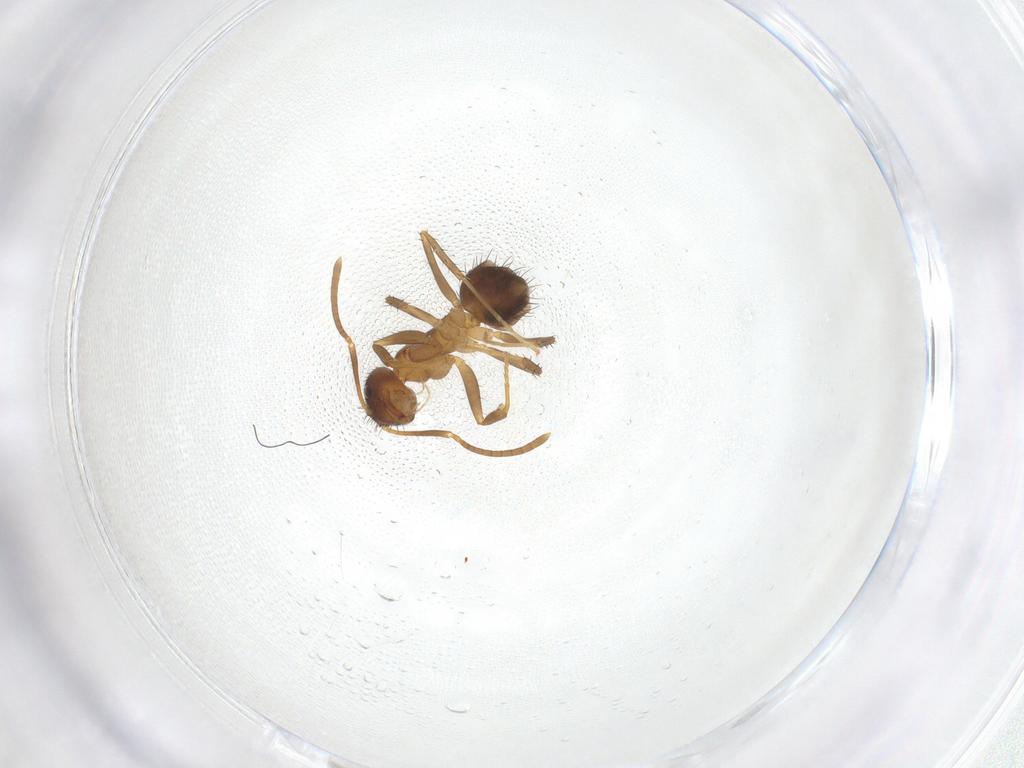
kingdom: Animalia
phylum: Arthropoda
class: Insecta
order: Hymenoptera
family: Formicidae
